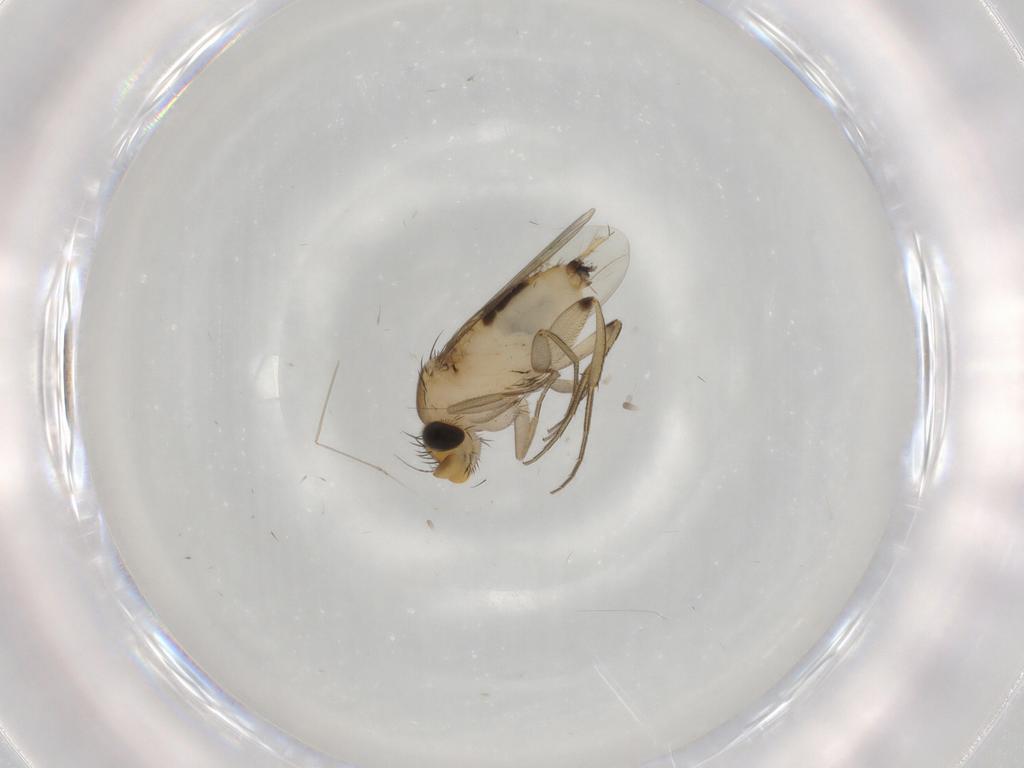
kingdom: Animalia
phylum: Arthropoda
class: Insecta
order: Diptera
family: Phoridae
